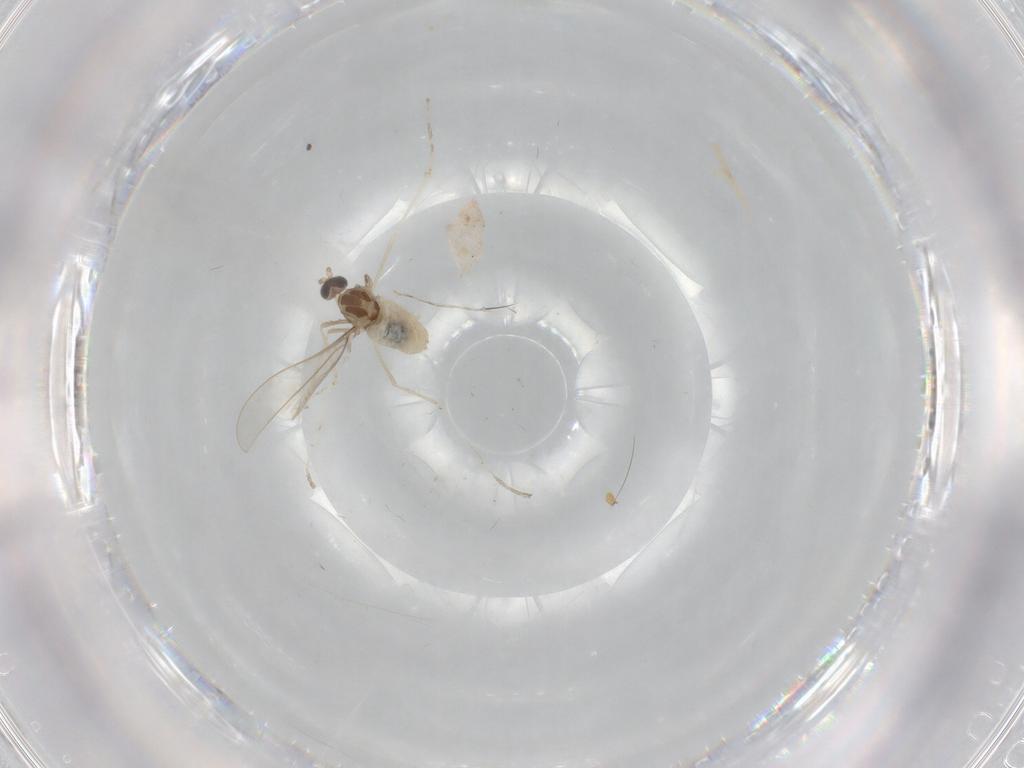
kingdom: Animalia
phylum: Arthropoda
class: Insecta
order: Diptera
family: Cecidomyiidae
